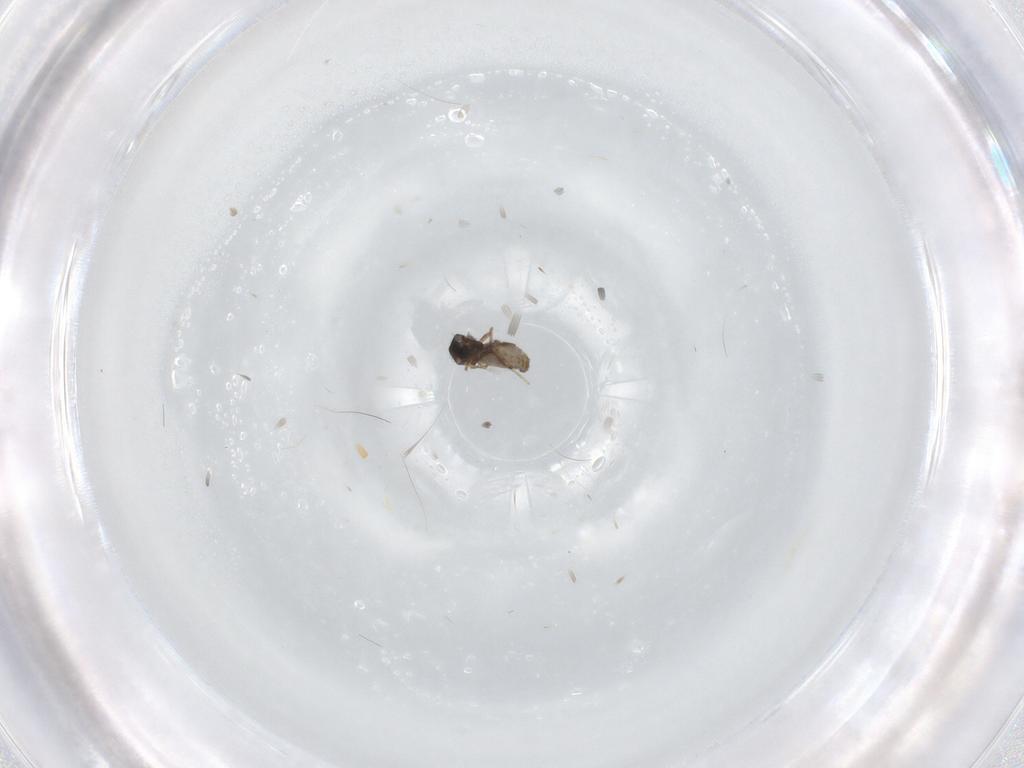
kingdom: Animalia
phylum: Arthropoda
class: Insecta
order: Diptera
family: Ceratopogonidae
